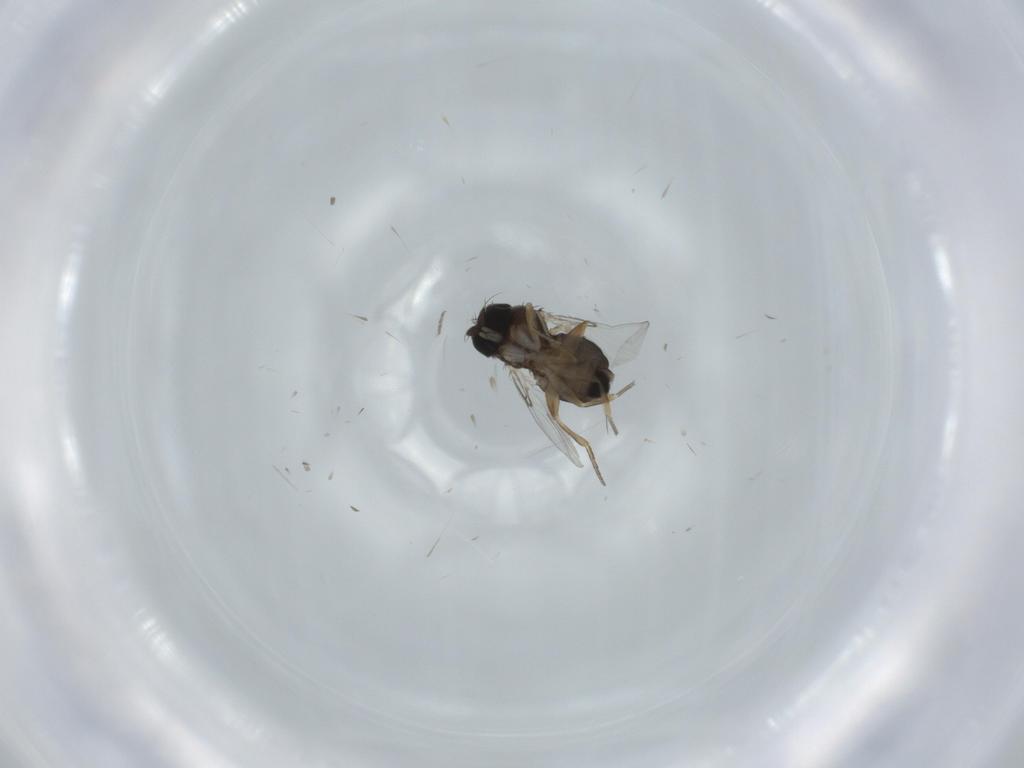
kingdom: Animalia
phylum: Arthropoda
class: Insecta
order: Diptera
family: Phoridae
